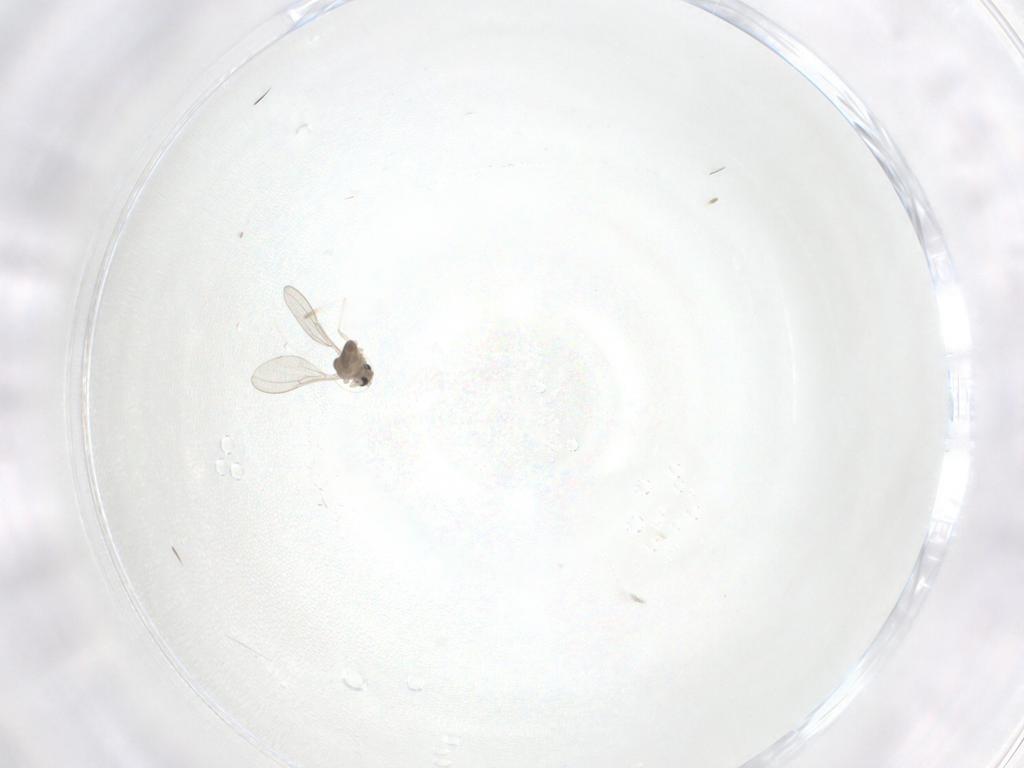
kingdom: Animalia
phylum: Arthropoda
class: Insecta
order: Diptera
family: Cecidomyiidae
